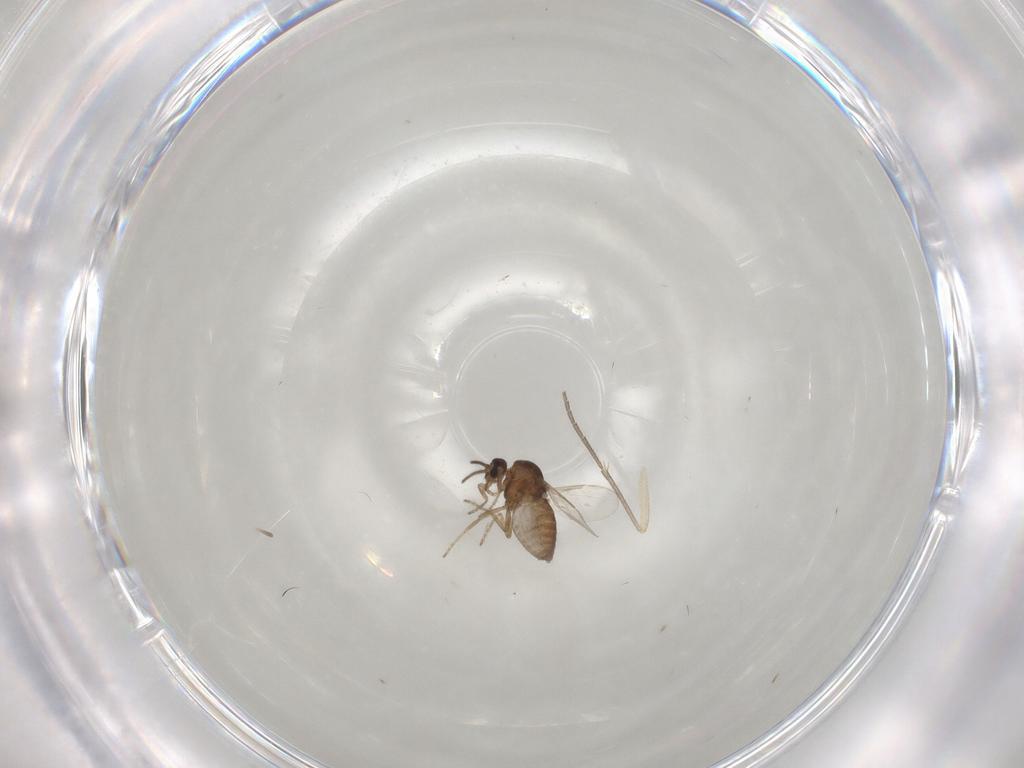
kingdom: Animalia
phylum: Arthropoda
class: Insecta
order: Diptera
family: Ceratopogonidae
